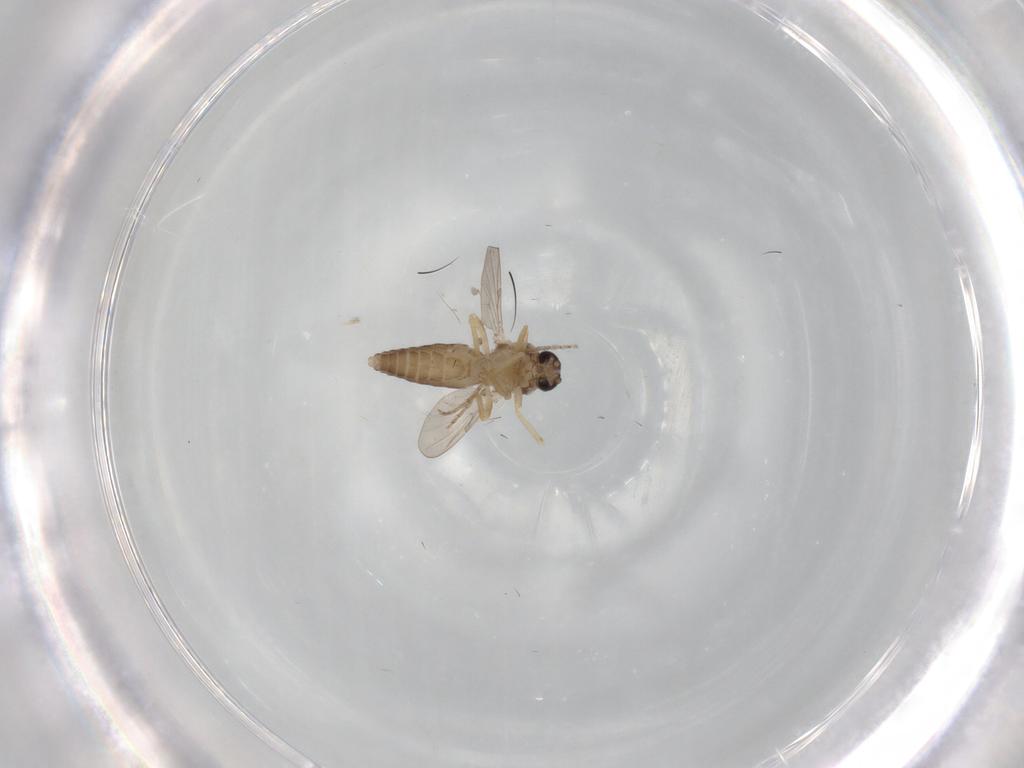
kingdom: Animalia
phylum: Arthropoda
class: Insecta
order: Diptera
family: Ceratopogonidae
